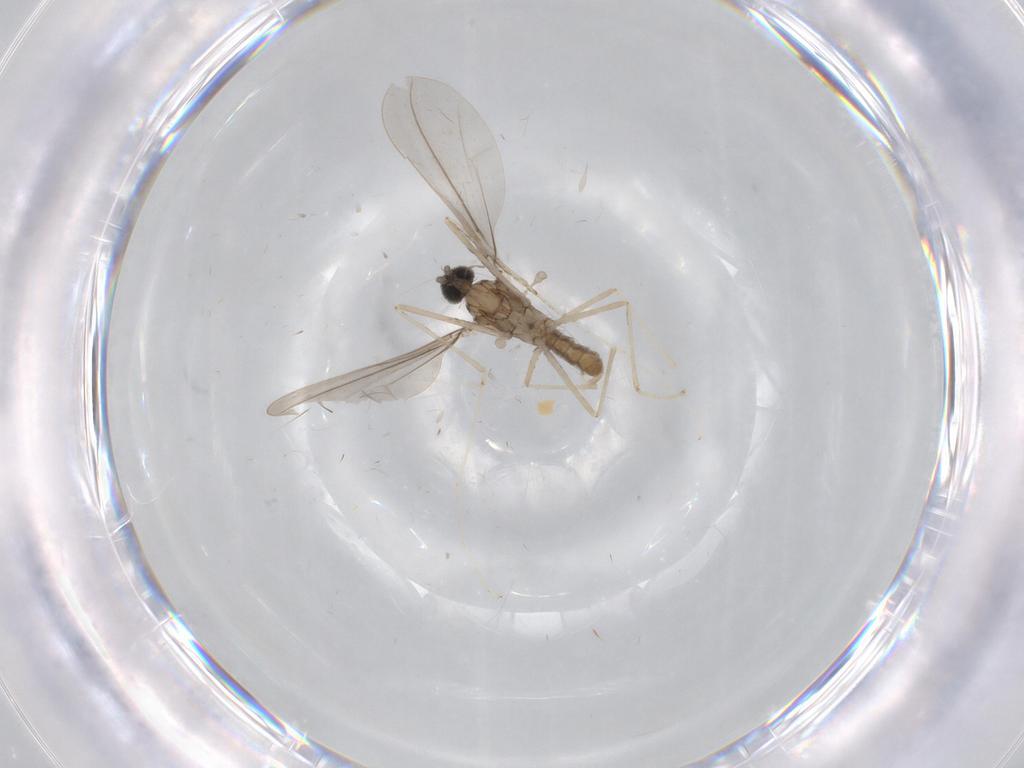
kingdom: Animalia
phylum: Arthropoda
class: Insecta
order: Diptera
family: Cecidomyiidae
